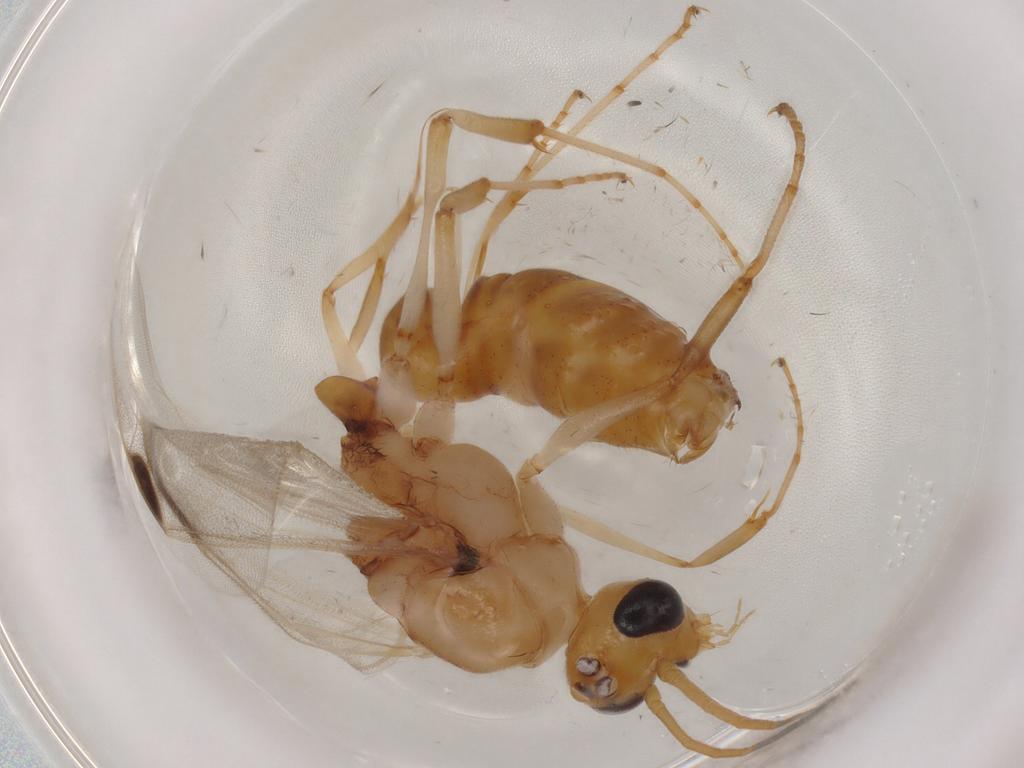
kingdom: Animalia
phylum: Arthropoda
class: Insecta
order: Hymenoptera
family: Formicidae
